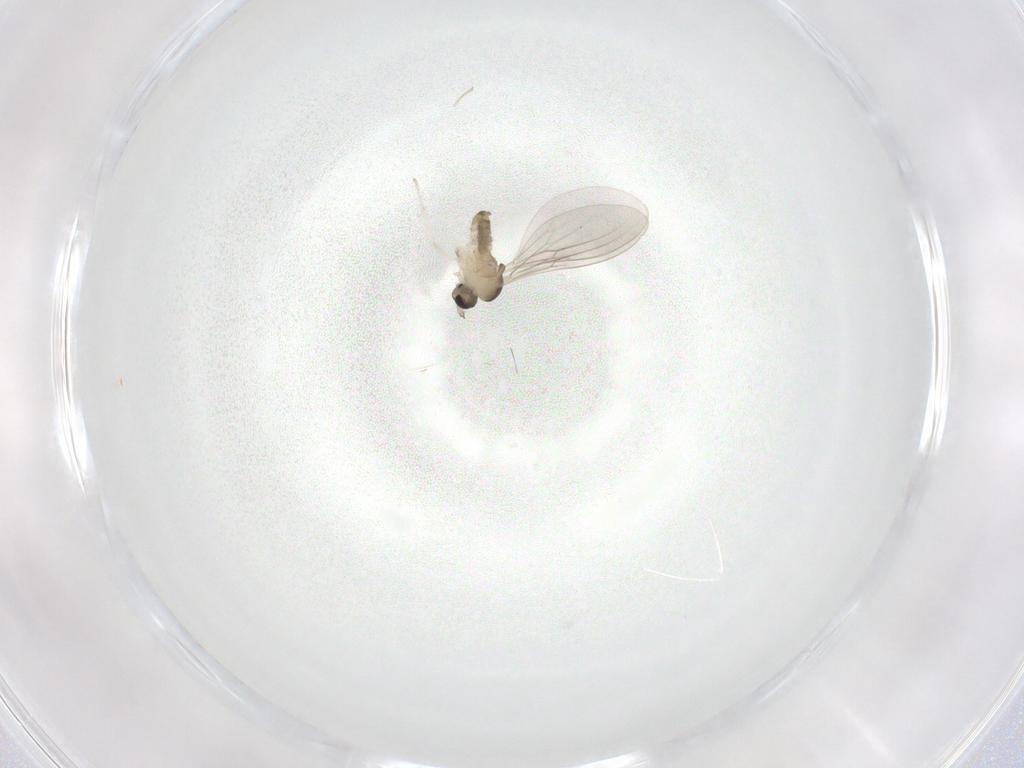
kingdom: Animalia
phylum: Arthropoda
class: Insecta
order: Diptera
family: Cecidomyiidae
